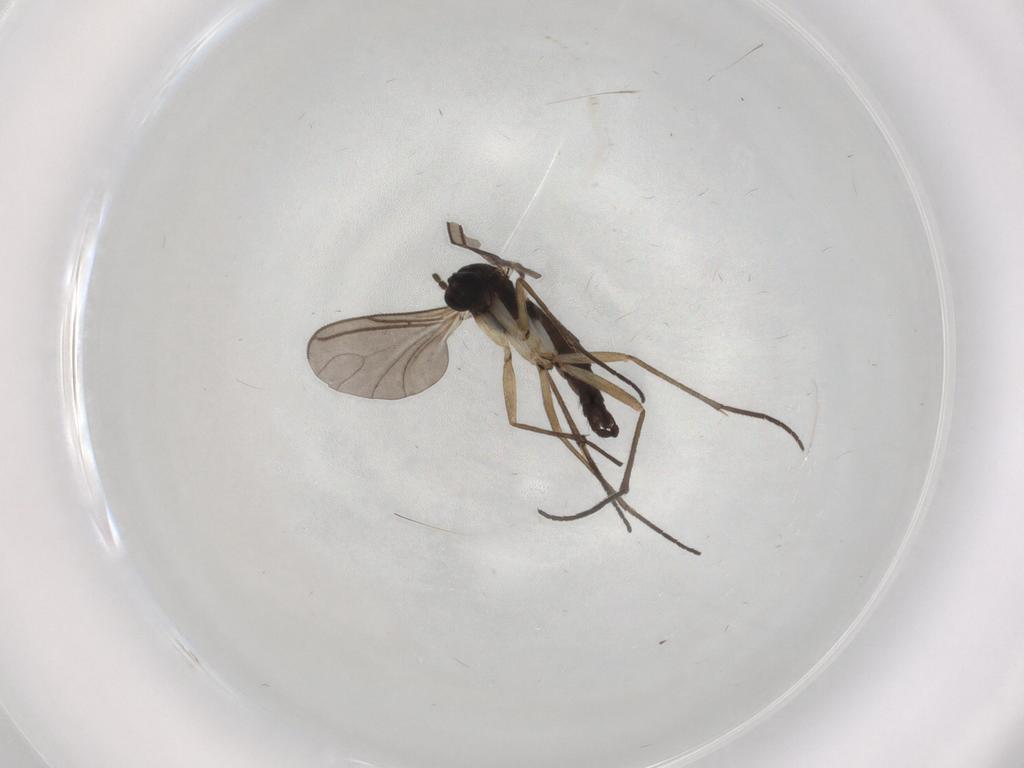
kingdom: Animalia
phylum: Arthropoda
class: Insecta
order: Diptera
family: Sciaridae
